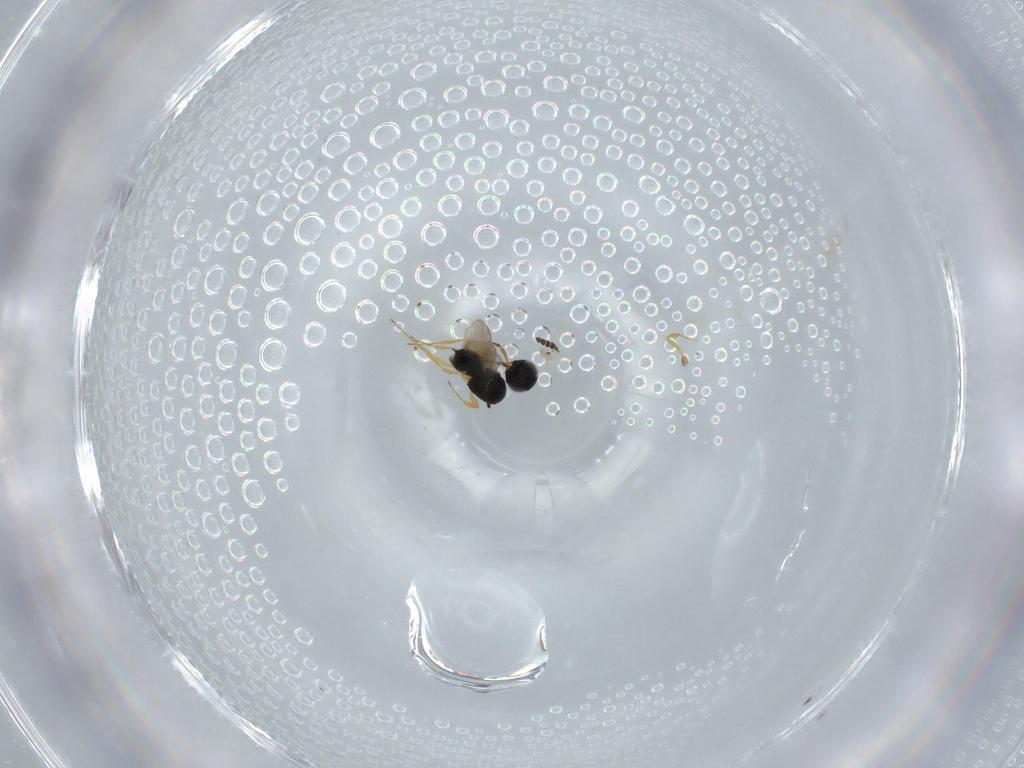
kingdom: Animalia
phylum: Arthropoda
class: Insecta
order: Hymenoptera
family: Scelionidae
